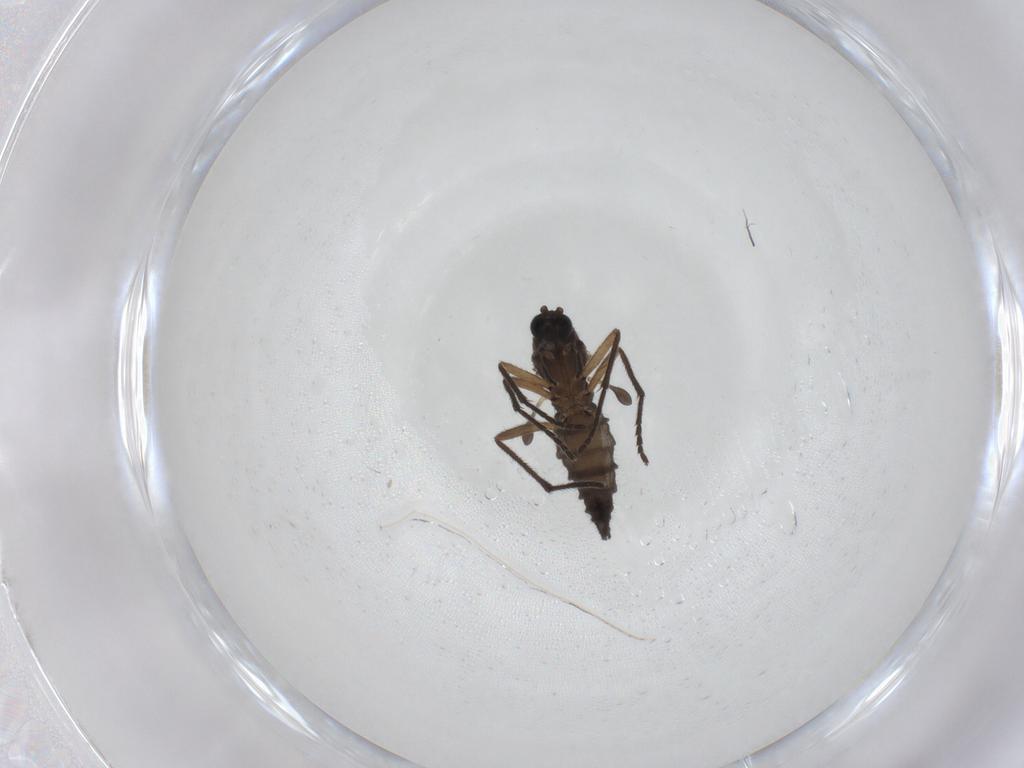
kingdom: Animalia
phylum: Arthropoda
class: Insecta
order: Diptera
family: Sciaridae
